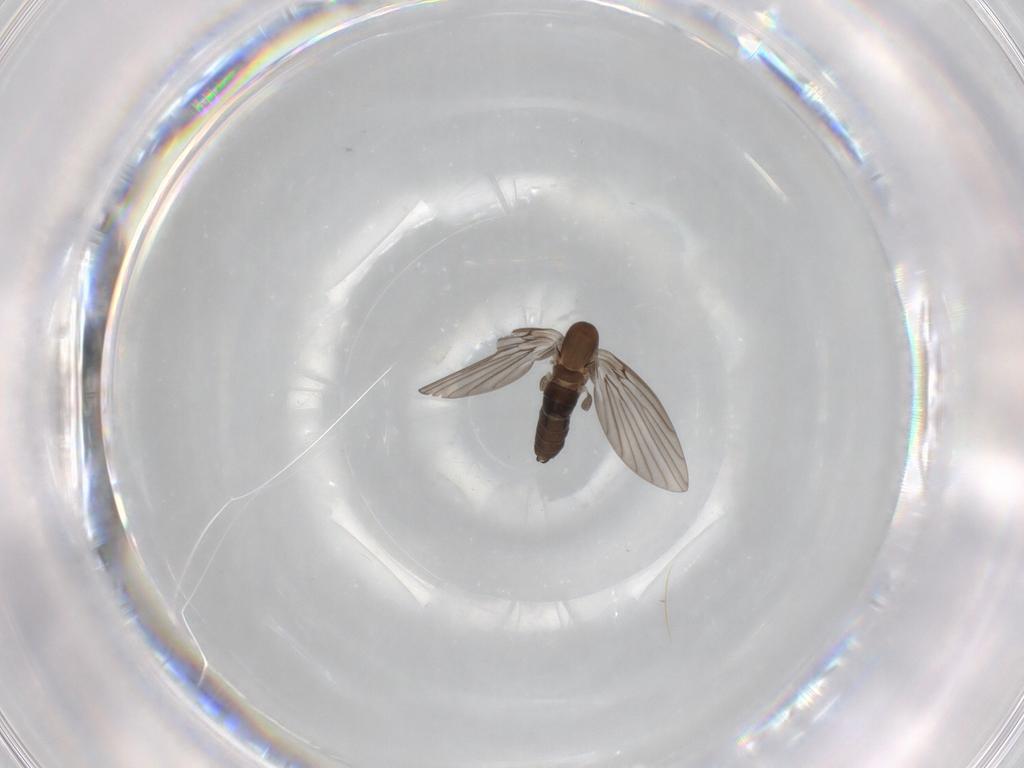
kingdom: Animalia
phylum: Arthropoda
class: Insecta
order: Diptera
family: Psychodidae
